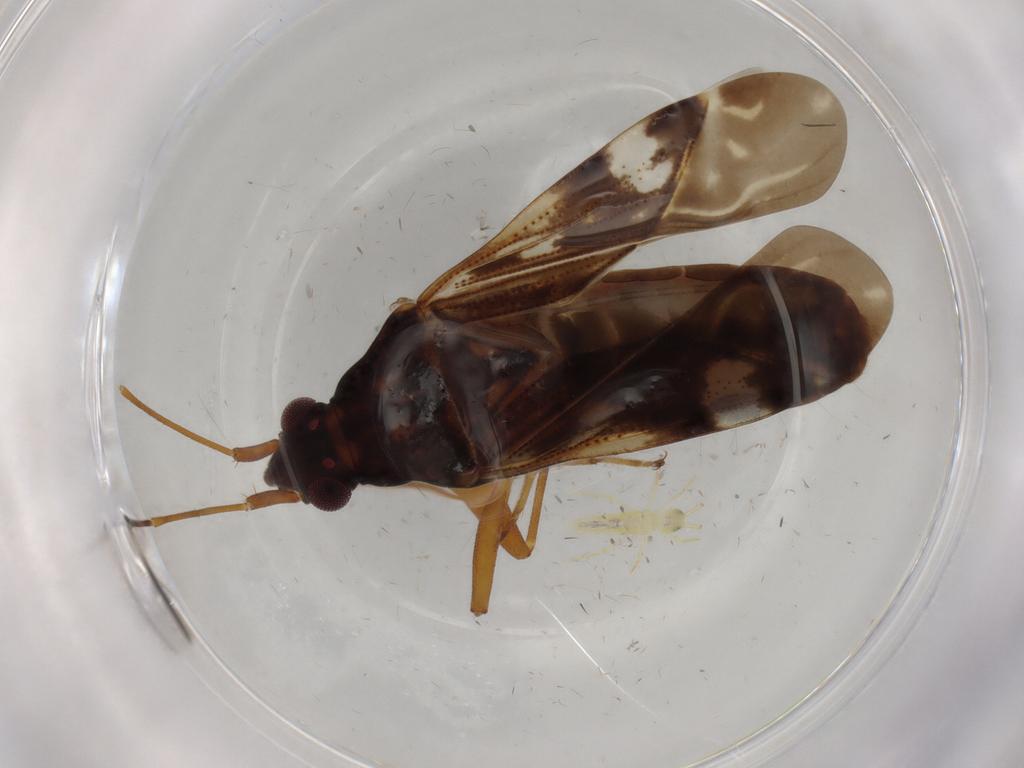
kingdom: Animalia
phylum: Arthropoda
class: Insecta
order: Hemiptera
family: Rhyparochromidae
